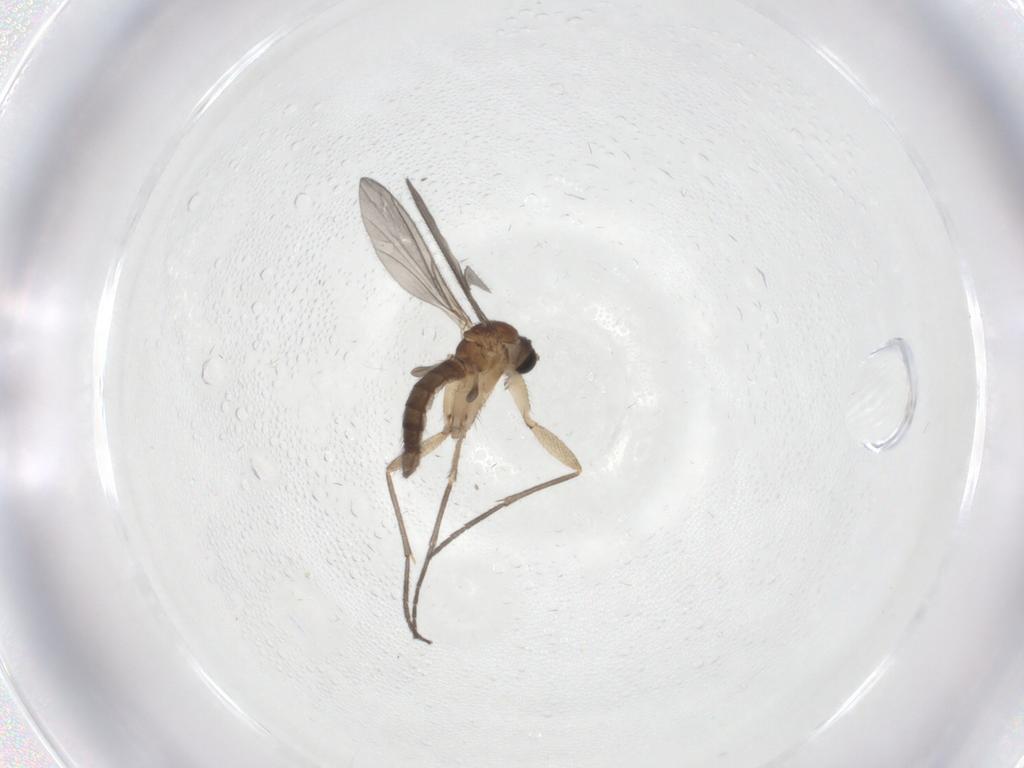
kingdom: Animalia
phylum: Arthropoda
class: Insecta
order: Diptera
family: Sciaridae
